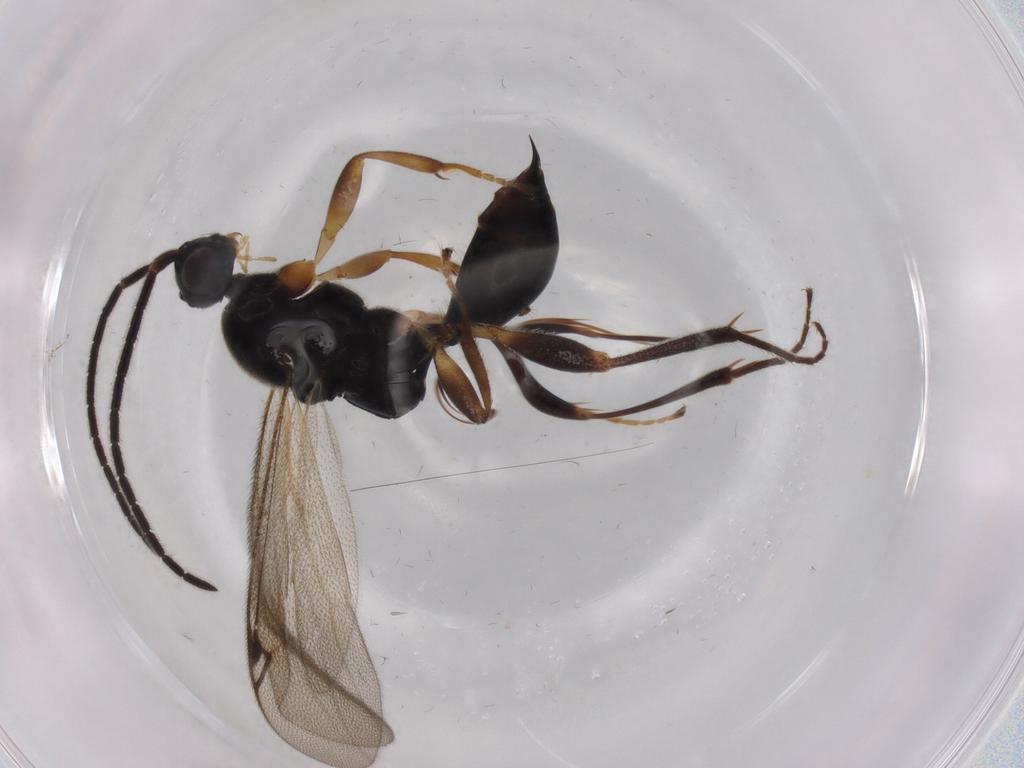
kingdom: Animalia
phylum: Arthropoda
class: Insecta
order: Hymenoptera
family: Proctotrupidae
